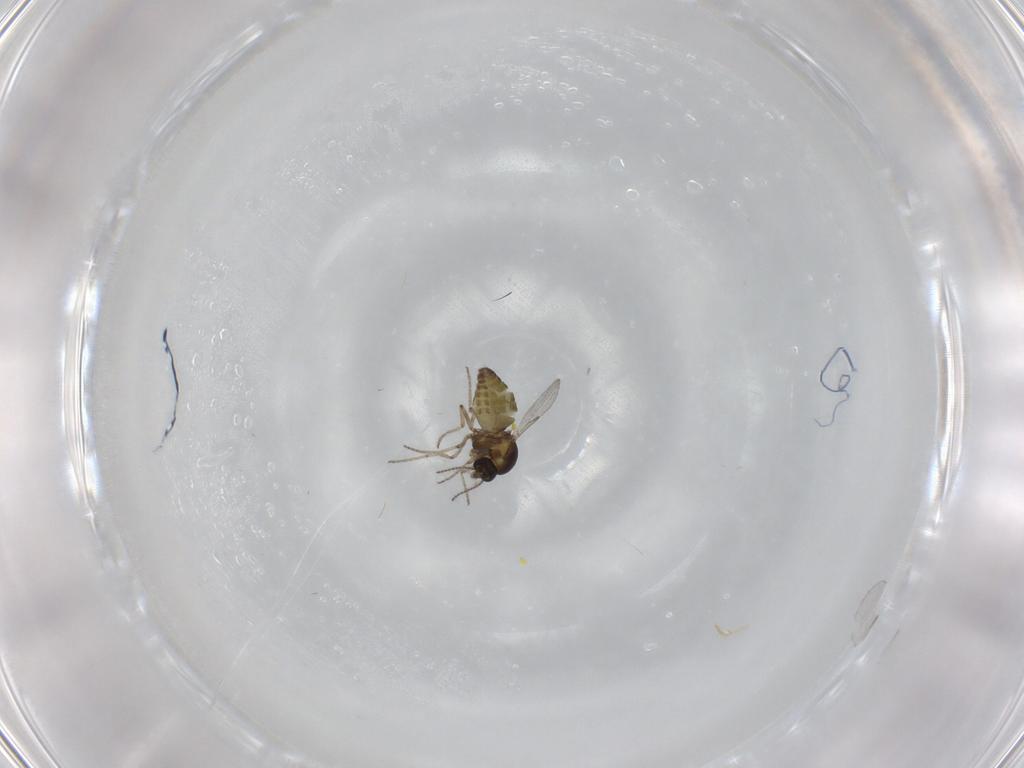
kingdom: Animalia
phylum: Arthropoda
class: Insecta
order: Diptera
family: Ceratopogonidae
